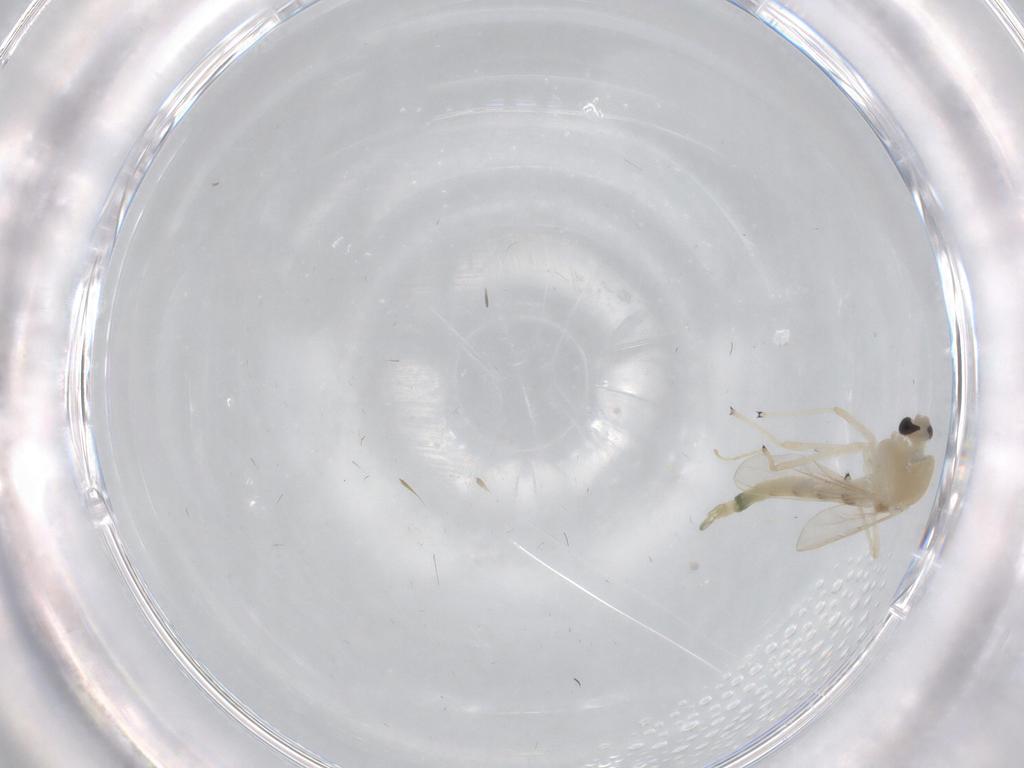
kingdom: Animalia
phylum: Arthropoda
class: Insecta
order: Diptera
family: Chironomidae
